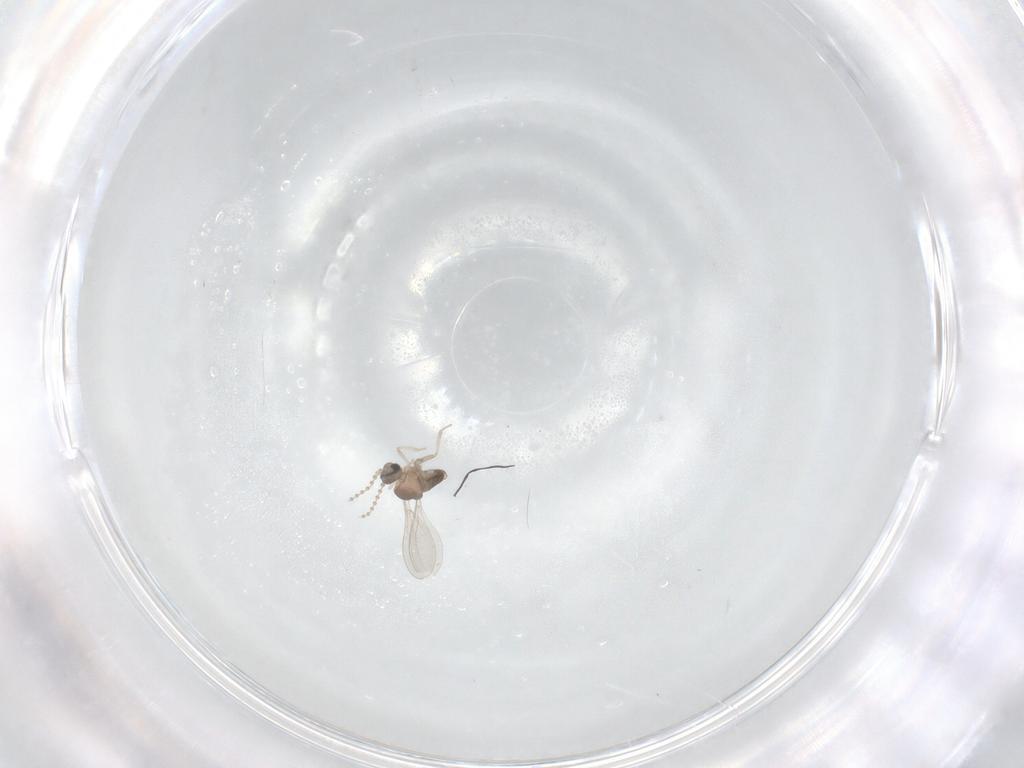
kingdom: Animalia
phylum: Arthropoda
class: Insecta
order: Diptera
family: Cecidomyiidae
